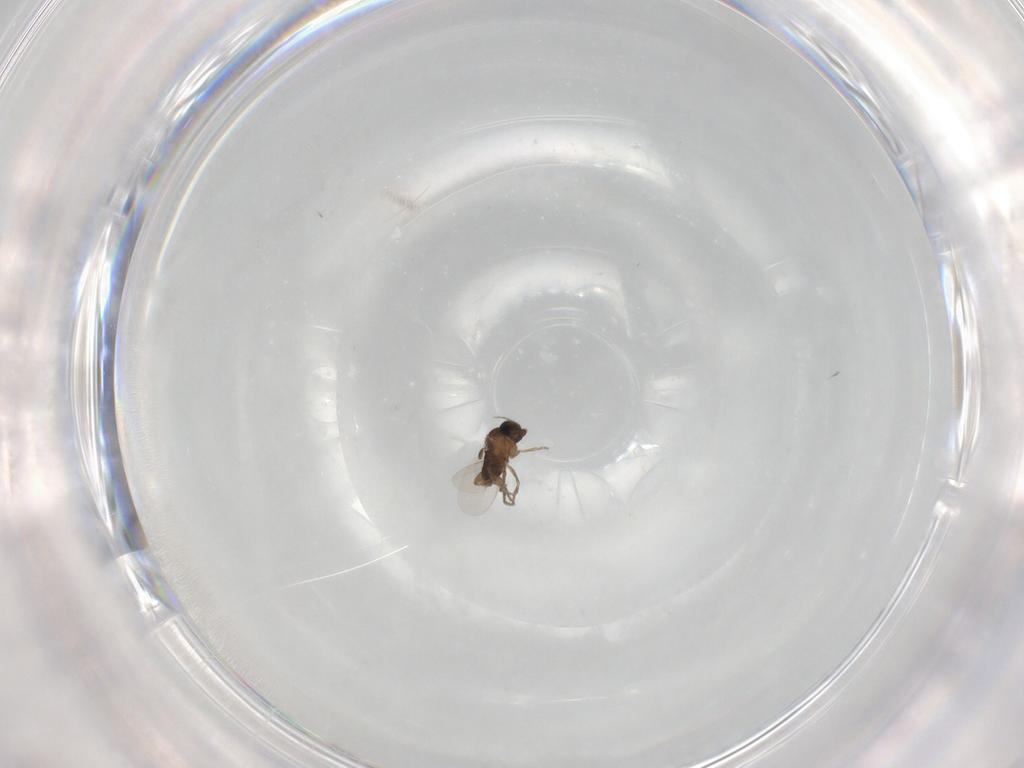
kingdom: Animalia
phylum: Arthropoda
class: Insecta
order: Diptera
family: Phoridae
